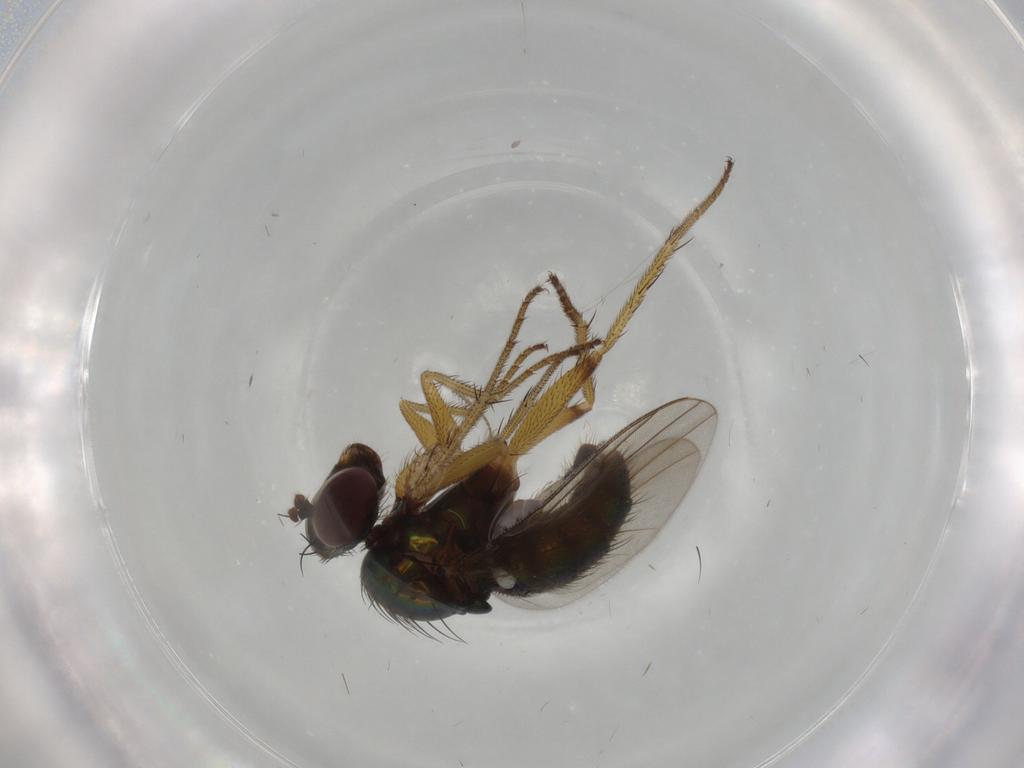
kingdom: Animalia
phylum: Arthropoda
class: Insecta
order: Diptera
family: Dolichopodidae
